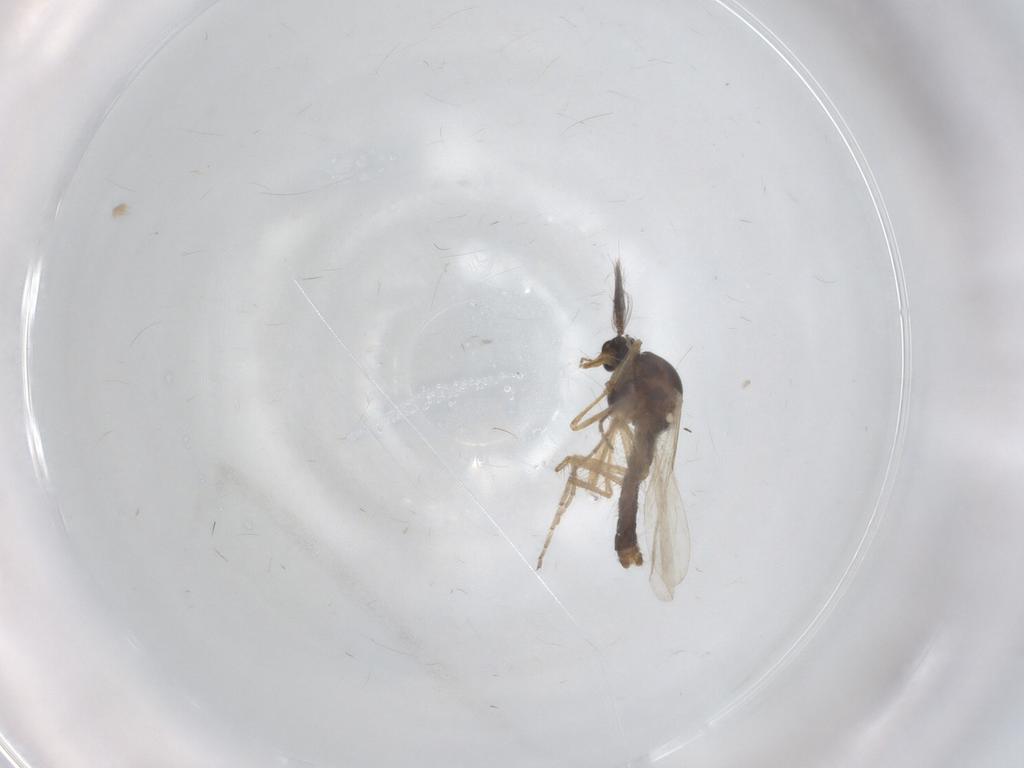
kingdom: Animalia
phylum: Arthropoda
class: Insecta
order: Diptera
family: Ceratopogonidae
